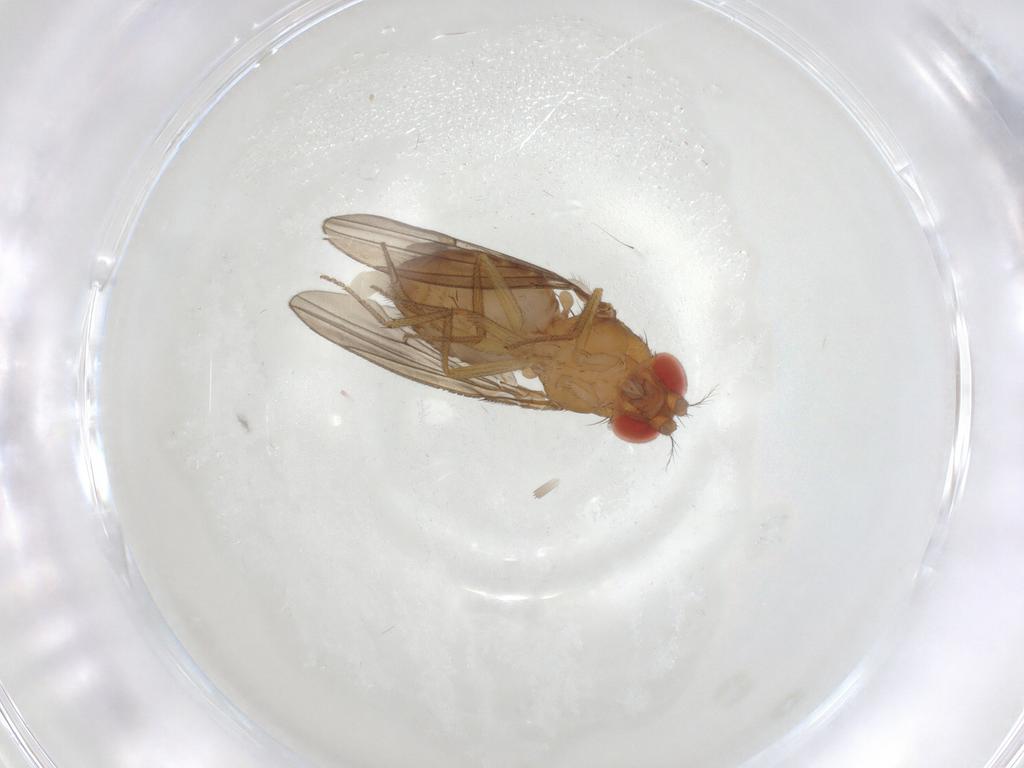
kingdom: Animalia
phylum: Arthropoda
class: Insecta
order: Diptera
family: Drosophilidae
